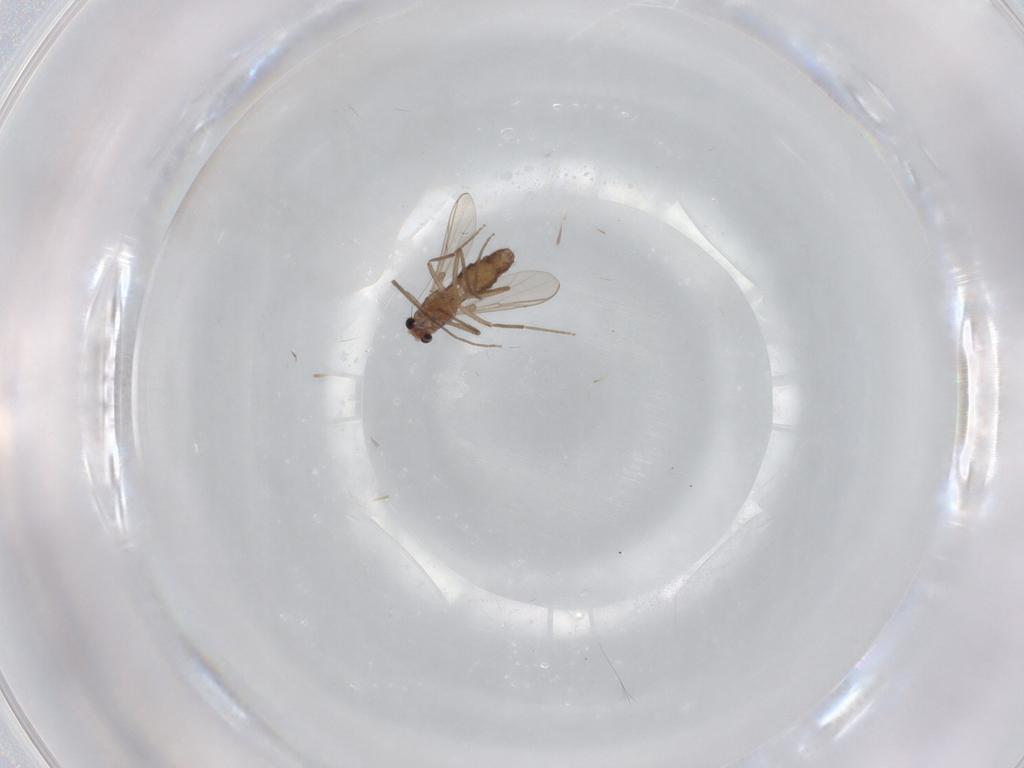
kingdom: Animalia
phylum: Arthropoda
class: Insecta
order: Diptera
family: Chironomidae
